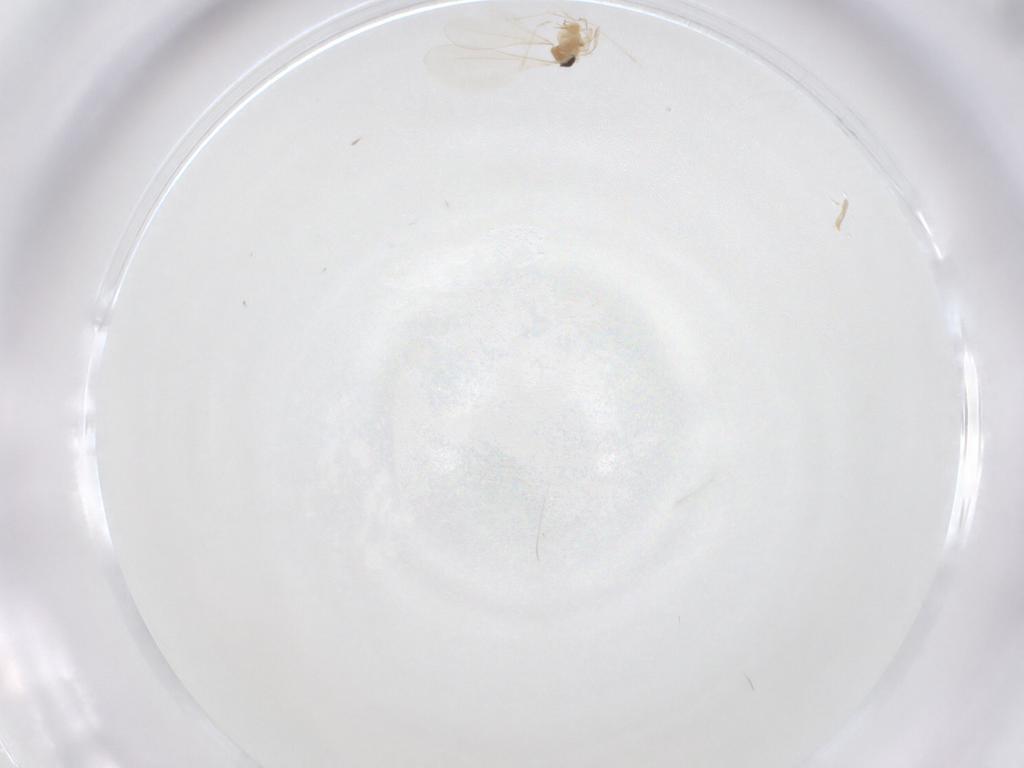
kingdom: Animalia
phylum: Arthropoda
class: Insecta
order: Diptera
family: Cecidomyiidae
